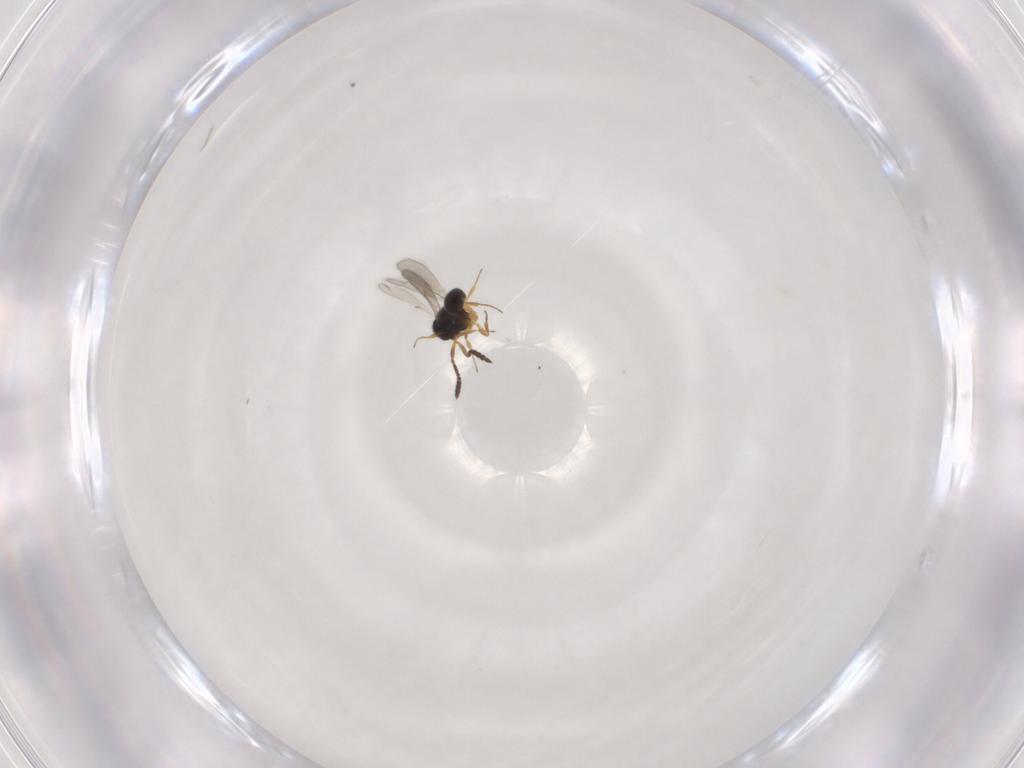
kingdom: Animalia
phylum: Arthropoda
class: Insecta
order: Hymenoptera
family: Scelionidae
